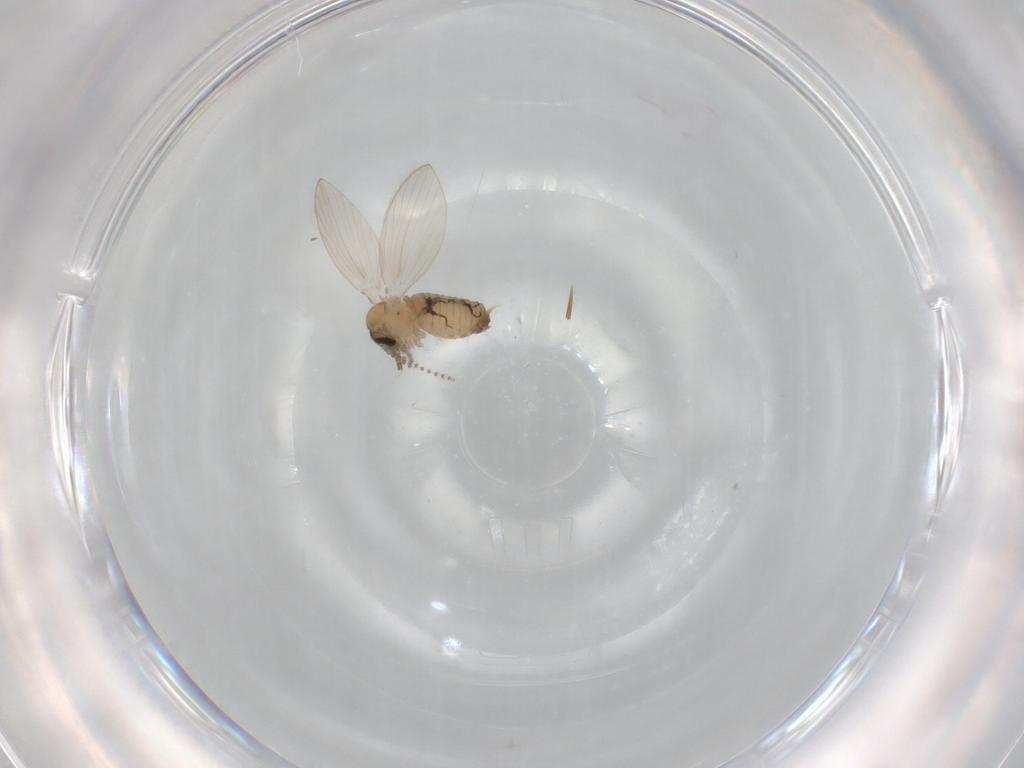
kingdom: Animalia
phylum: Arthropoda
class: Insecta
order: Diptera
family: Psychodidae
